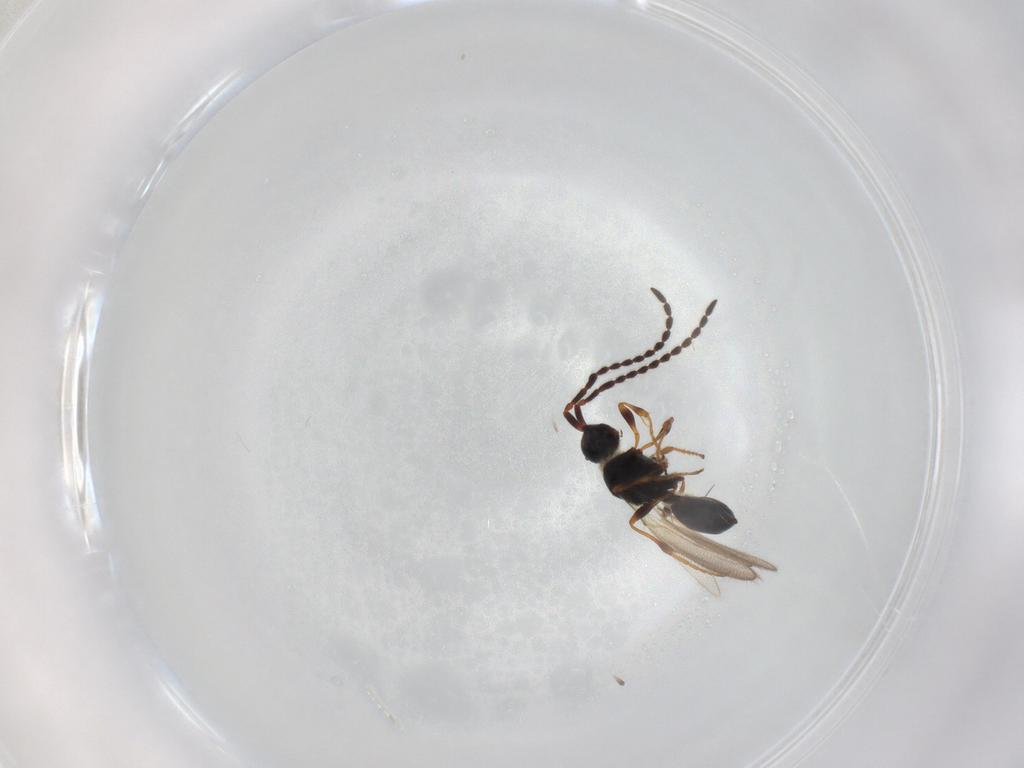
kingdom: Animalia
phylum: Arthropoda
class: Insecta
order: Hymenoptera
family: Diapriidae
